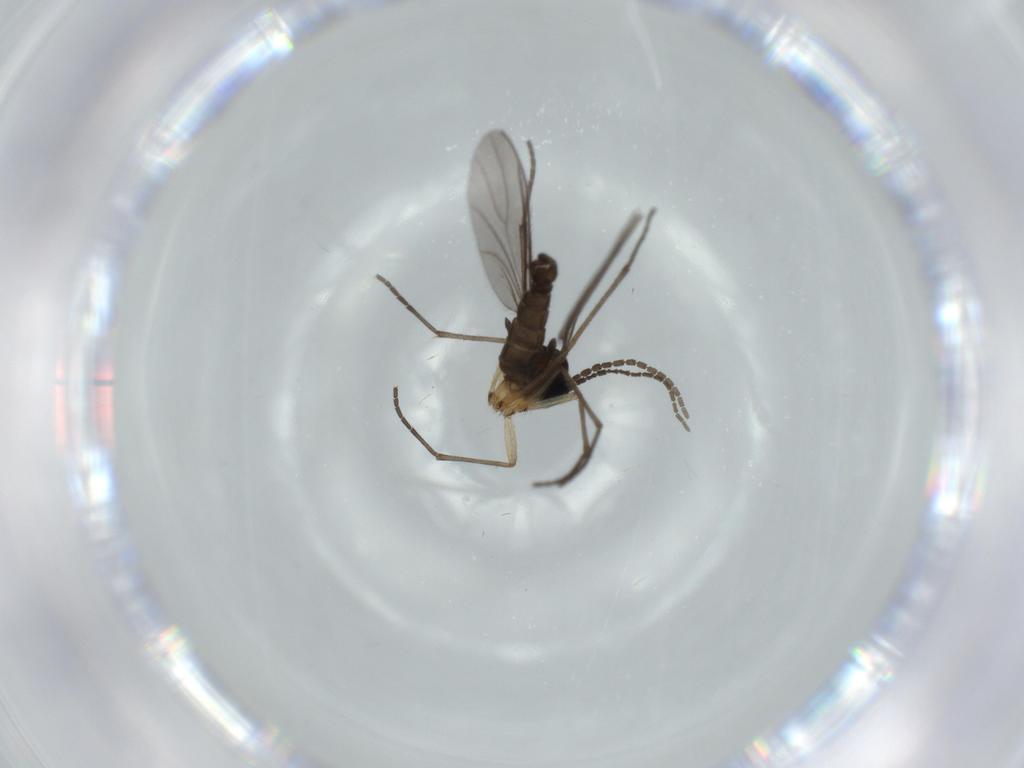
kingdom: Animalia
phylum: Arthropoda
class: Insecta
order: Diptera
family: Sciaridae
